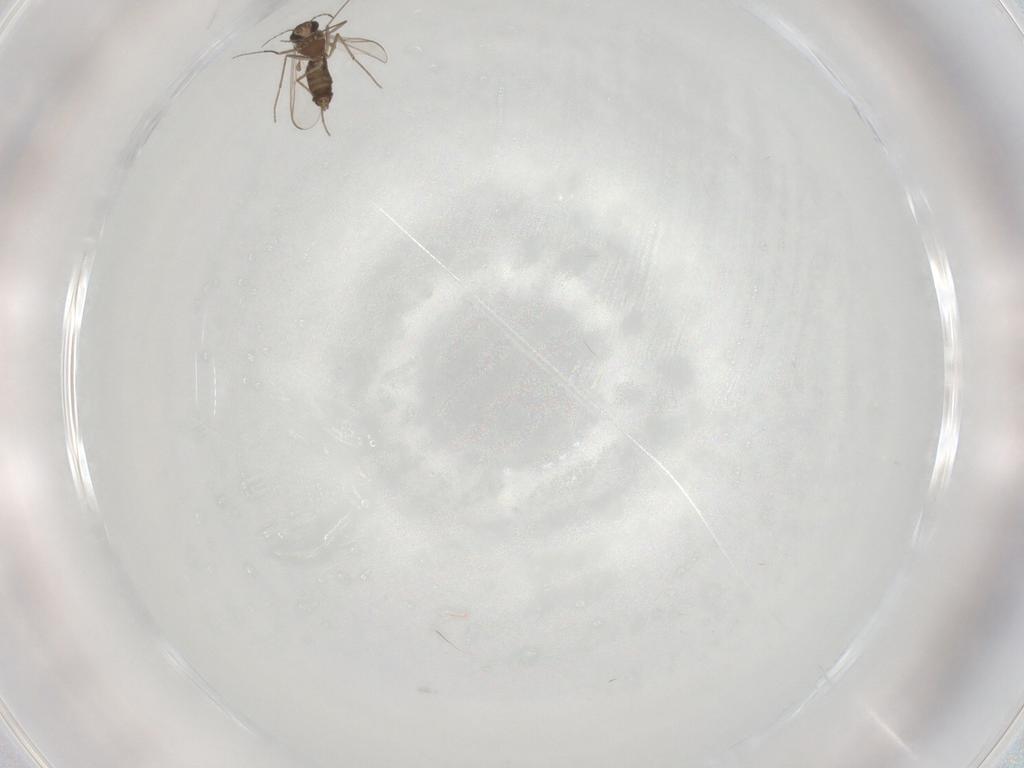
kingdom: Animalia
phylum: Arthropoda
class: Insecta
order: Diptera
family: Chironomidae
